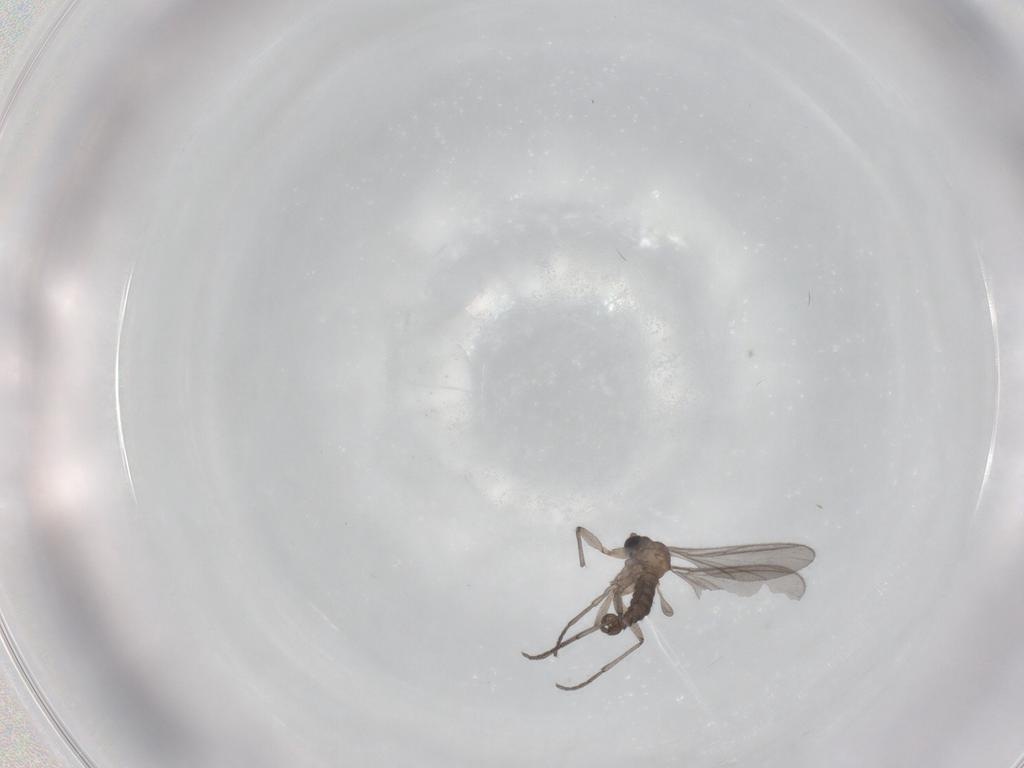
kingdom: Animalia
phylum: Arthropoda
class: Insecta
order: Diptera
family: Sciaridae
